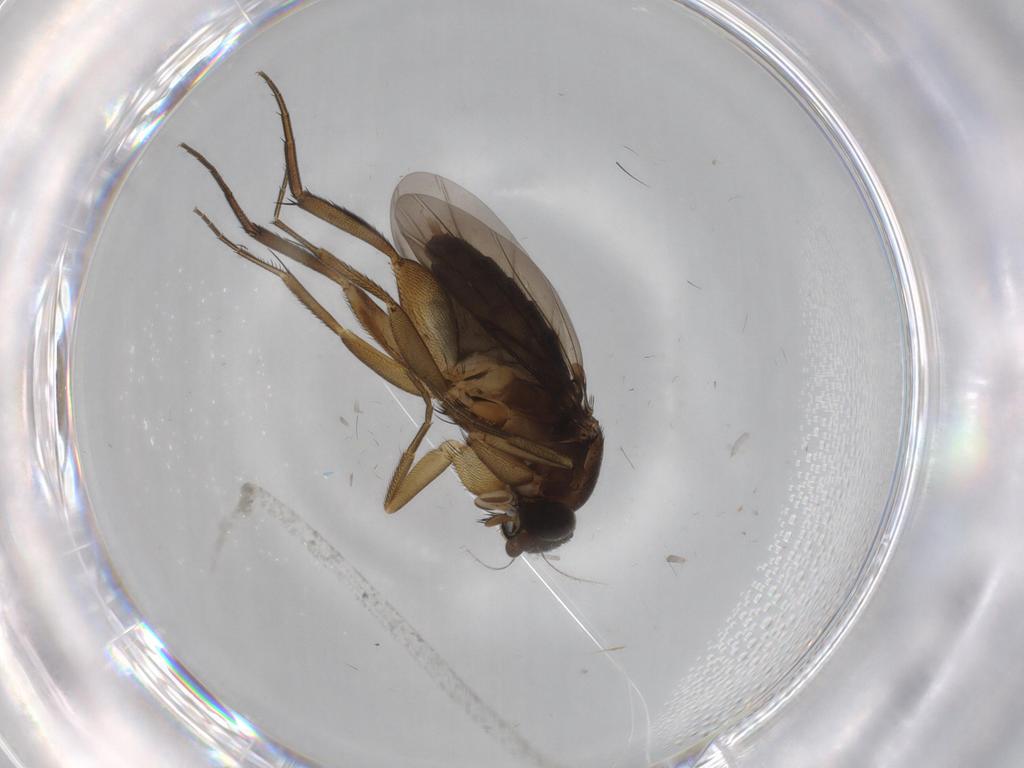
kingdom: Animalia
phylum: Arthropoda
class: Insecta
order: Diptera
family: Phoridae
